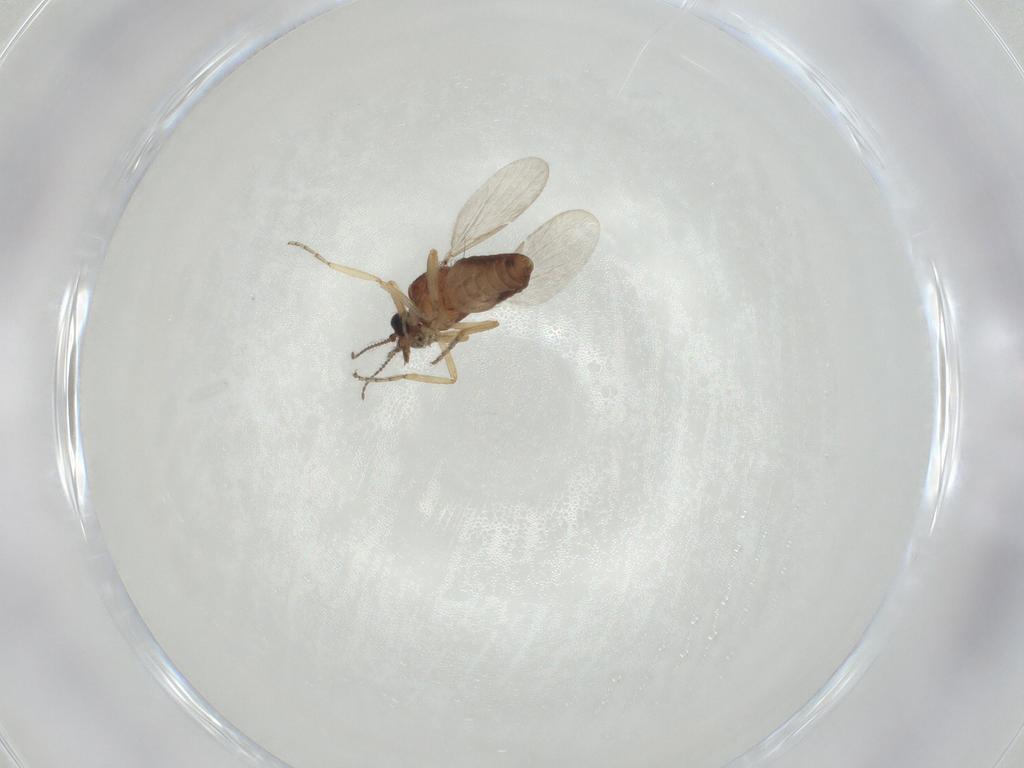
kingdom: Animalia
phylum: Arthropoda
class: Insecta
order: Diptera
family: Ceratopogonidae
